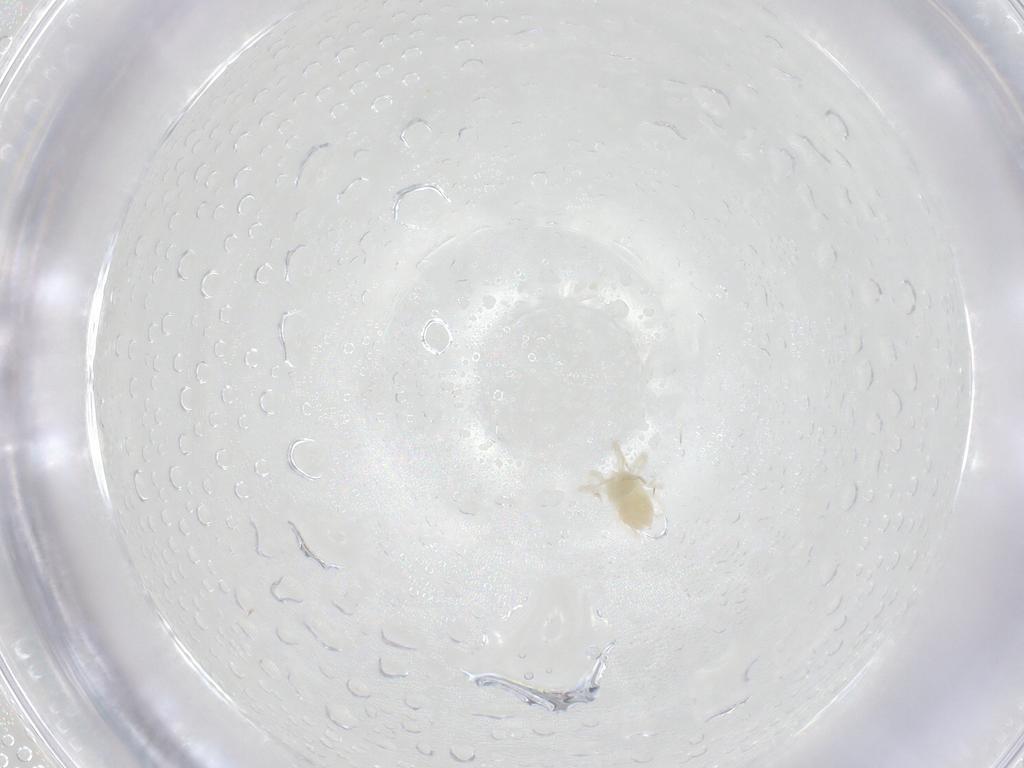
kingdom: Animalia
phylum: Arthropoda
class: Arachnida
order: Trombidiformes
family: Anystidae
